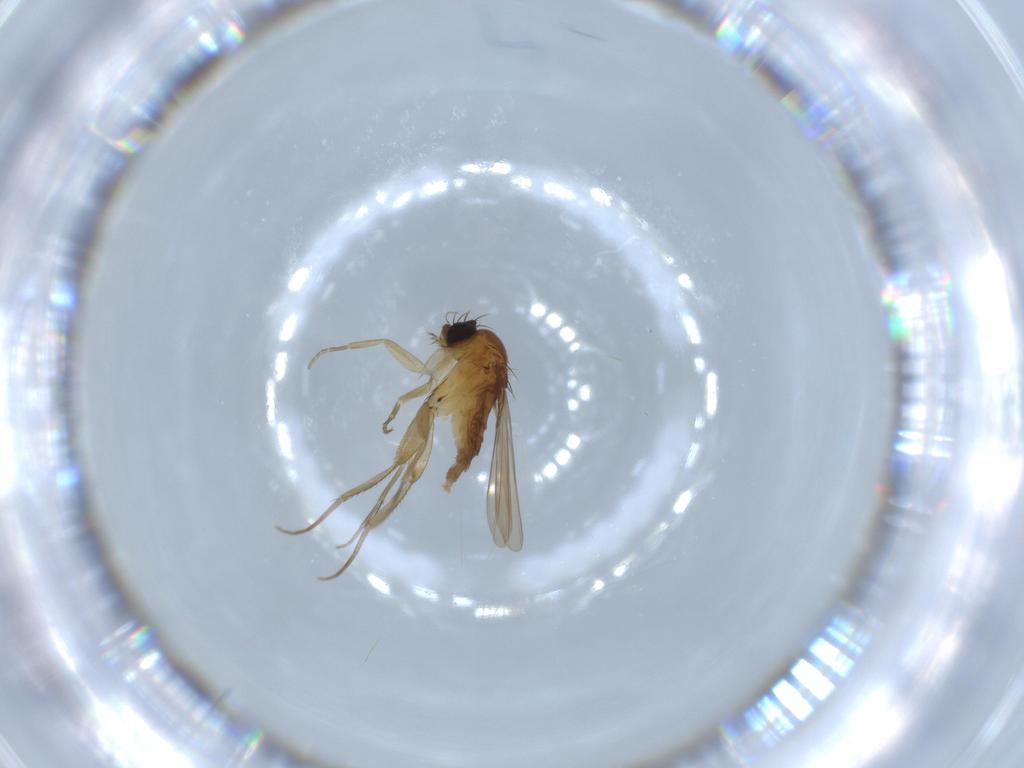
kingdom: Animalia
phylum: Arthropoda
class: Insecta
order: Diptera
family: Phoridae
